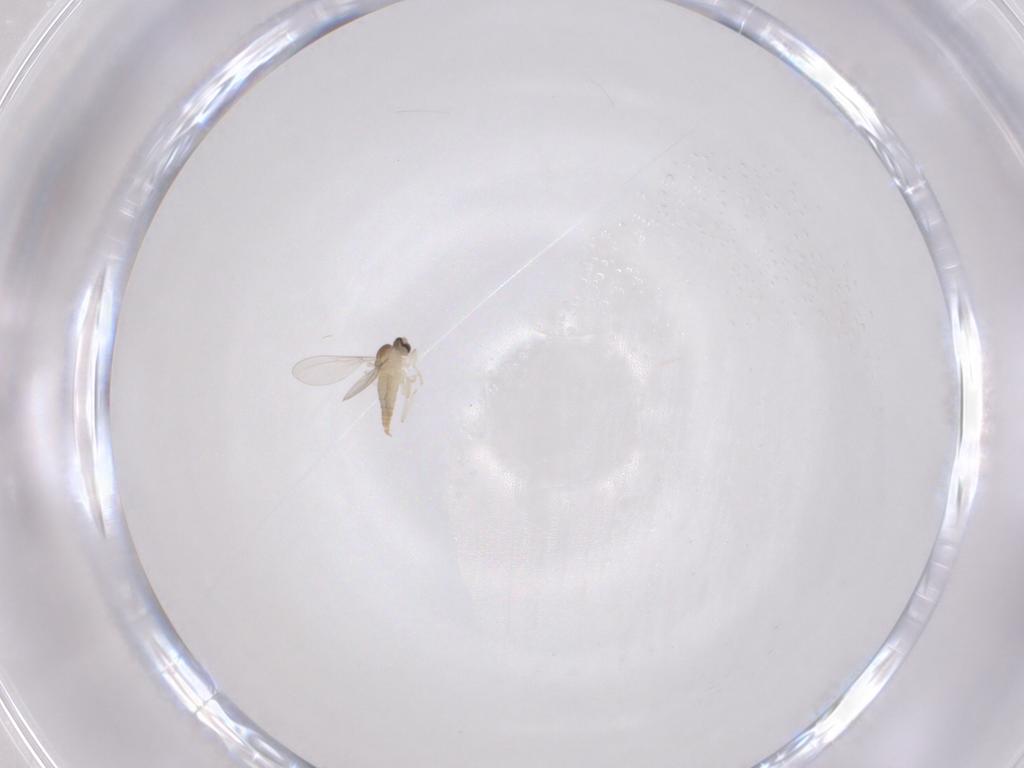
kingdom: Animalia
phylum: Arthropoda
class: Insecta
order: Diptera
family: Cecidomyiidae
